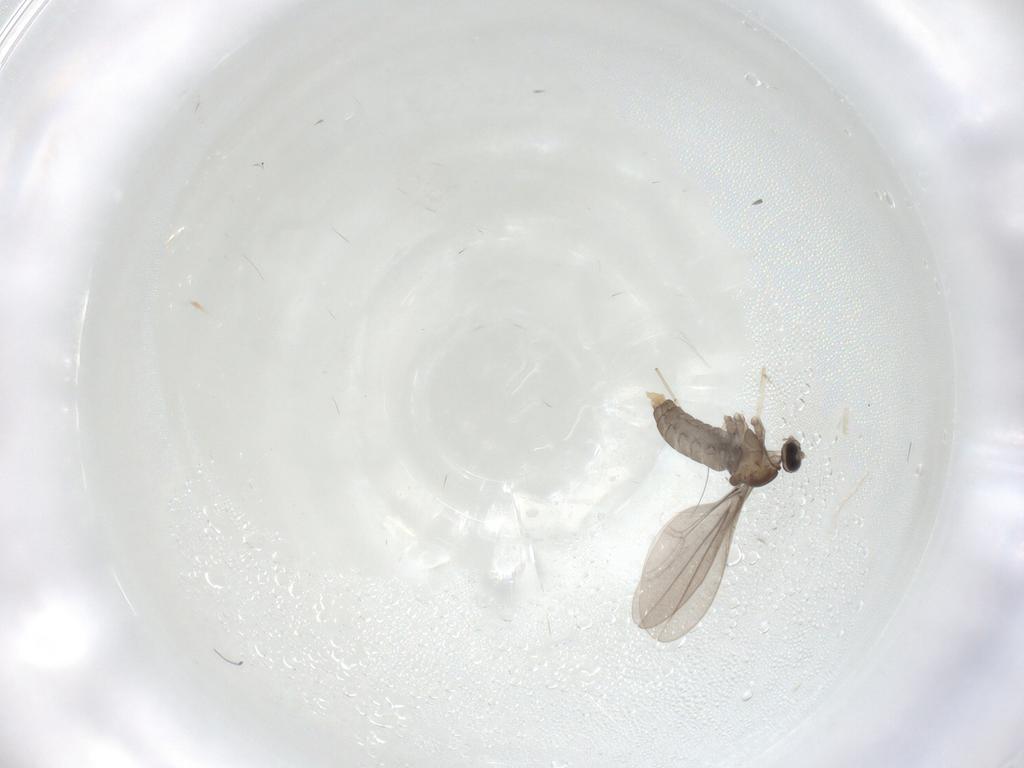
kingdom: Animalia
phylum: Arthropoda
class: Insecta
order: Diptera
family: Cecidomyiidae
